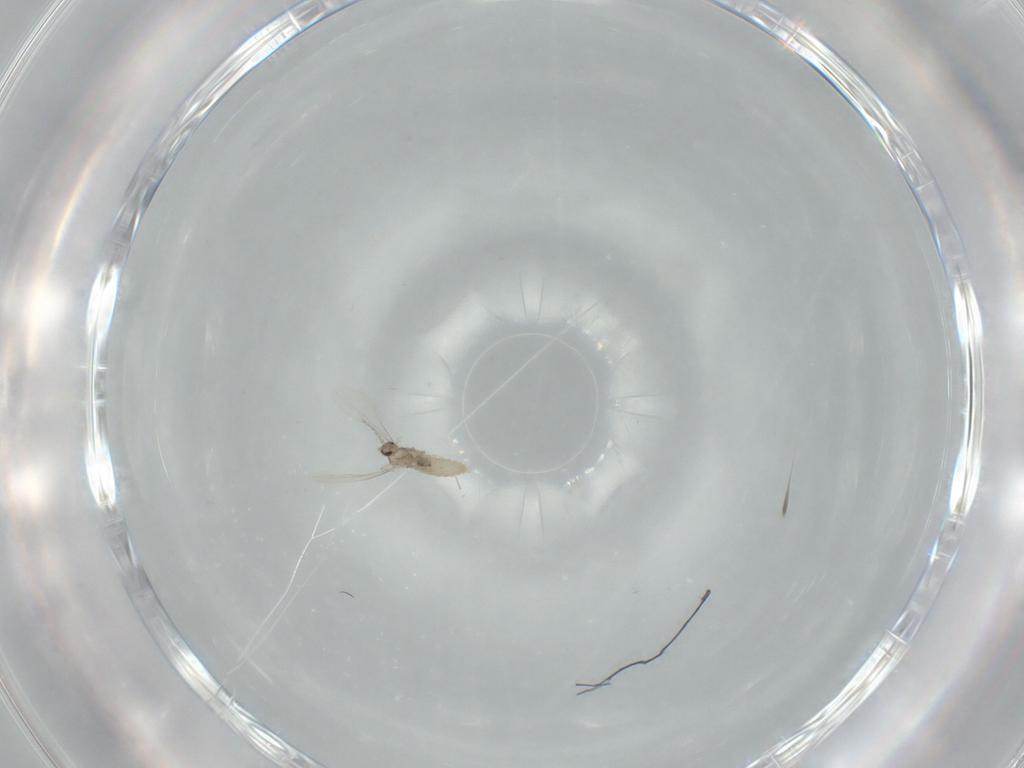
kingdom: Animalia
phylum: Arthropoda
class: Insecta
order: Diptera
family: Cecidomyiidae
